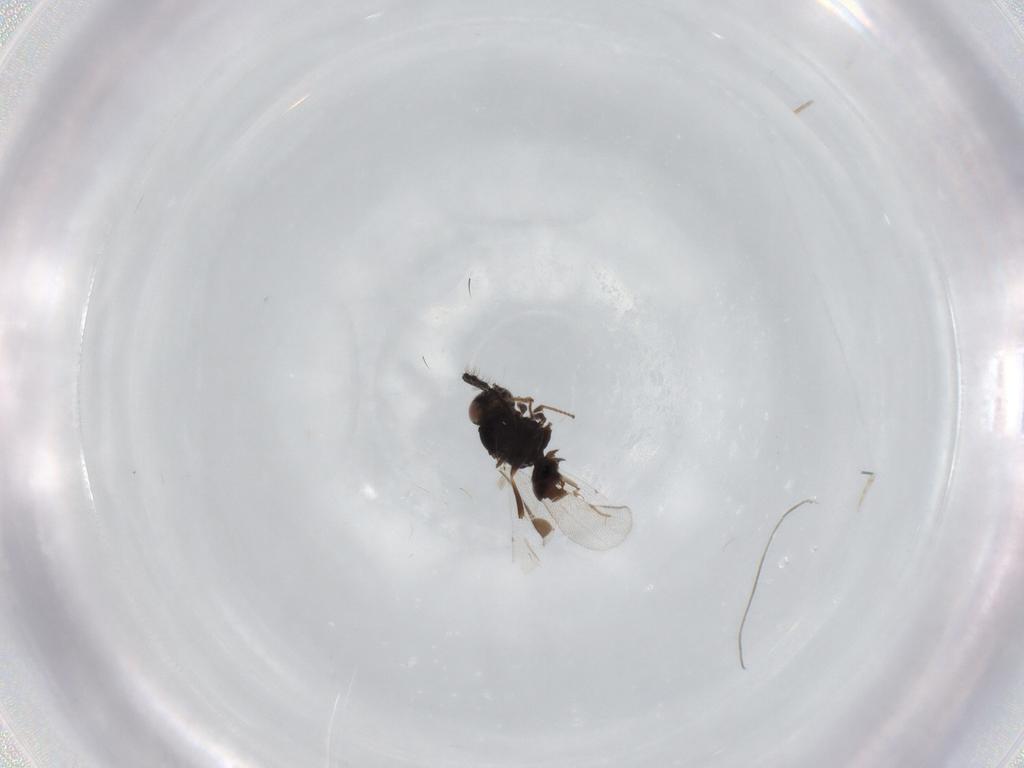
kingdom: Animalia
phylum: Arthropoda
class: Insecta
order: Hymenoptera
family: Tenthredinidae
